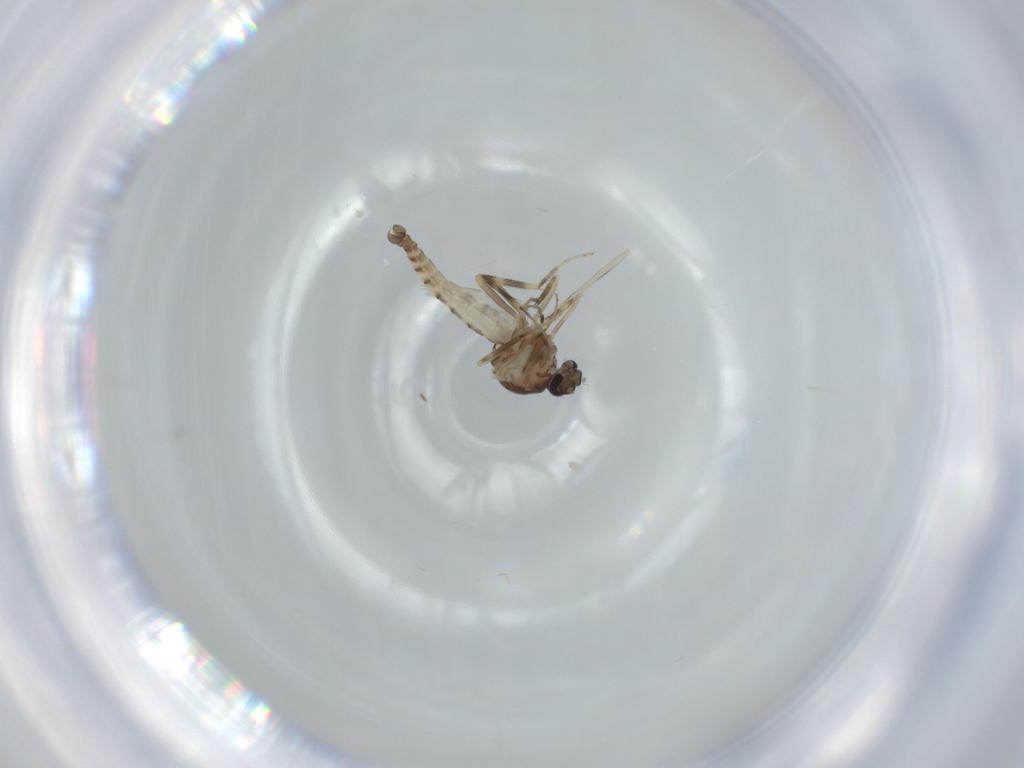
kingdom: Animalia
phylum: Arthropoda
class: Insecta
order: Diptera
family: Ceratopogonidae
